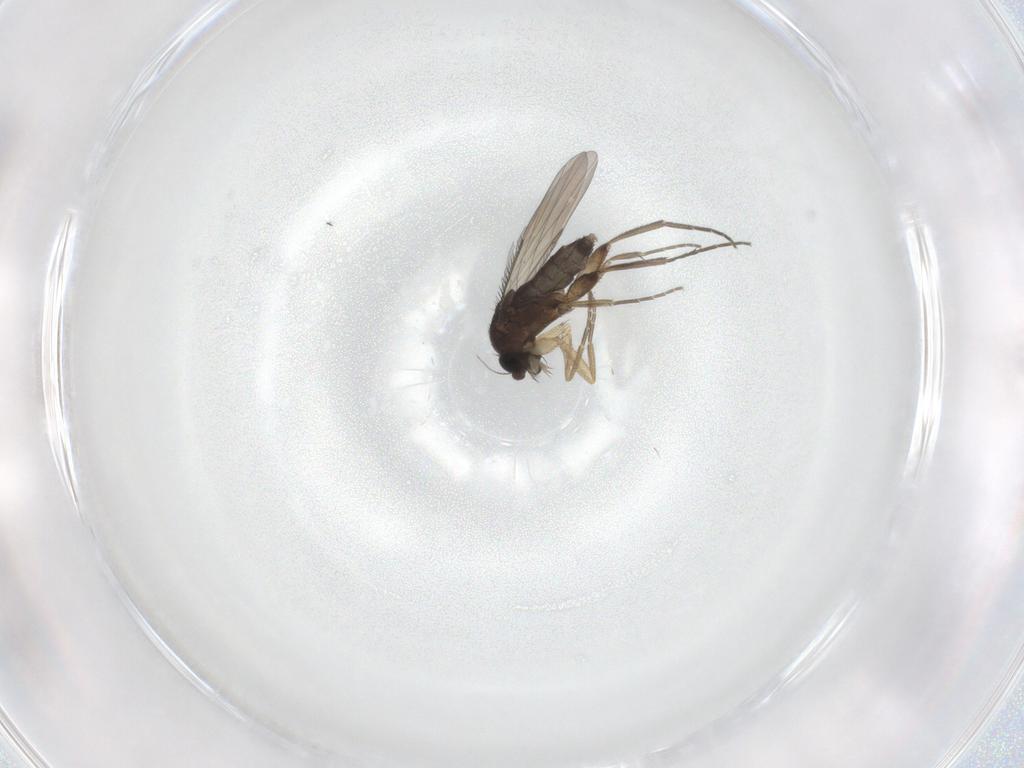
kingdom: Animalia
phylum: Arthropoda
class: Insecta
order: Diptera
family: Phoridae
